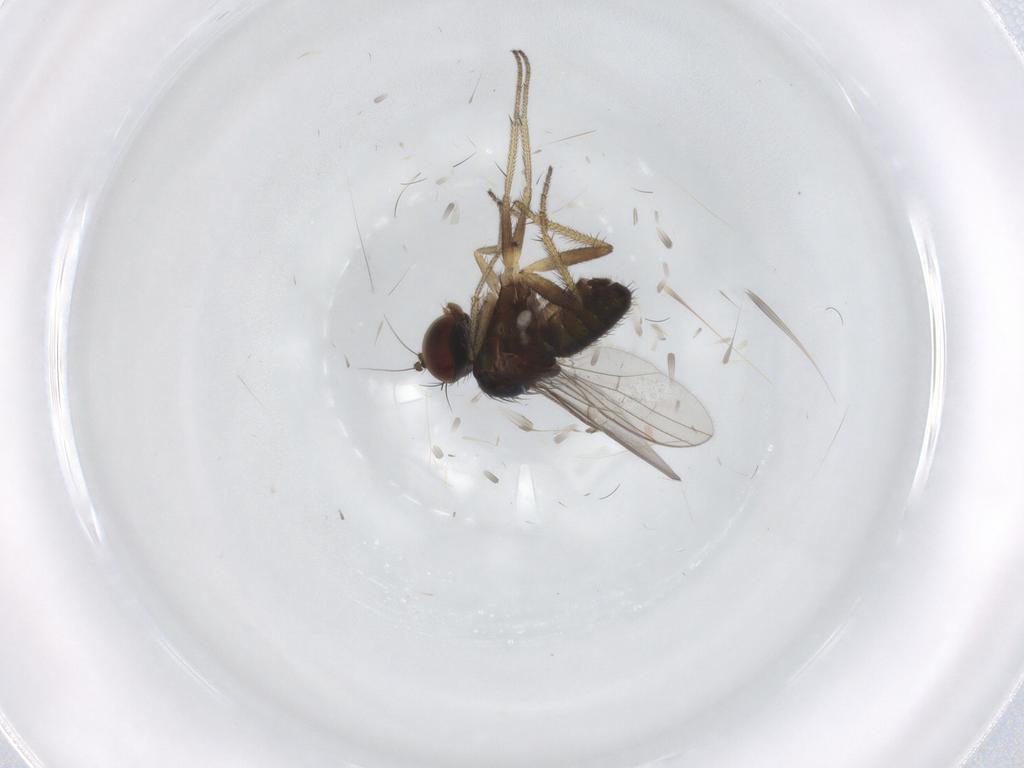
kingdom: Animalia
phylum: Arthropoda
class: Insecta
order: Diptera
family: Dolichopodidae
